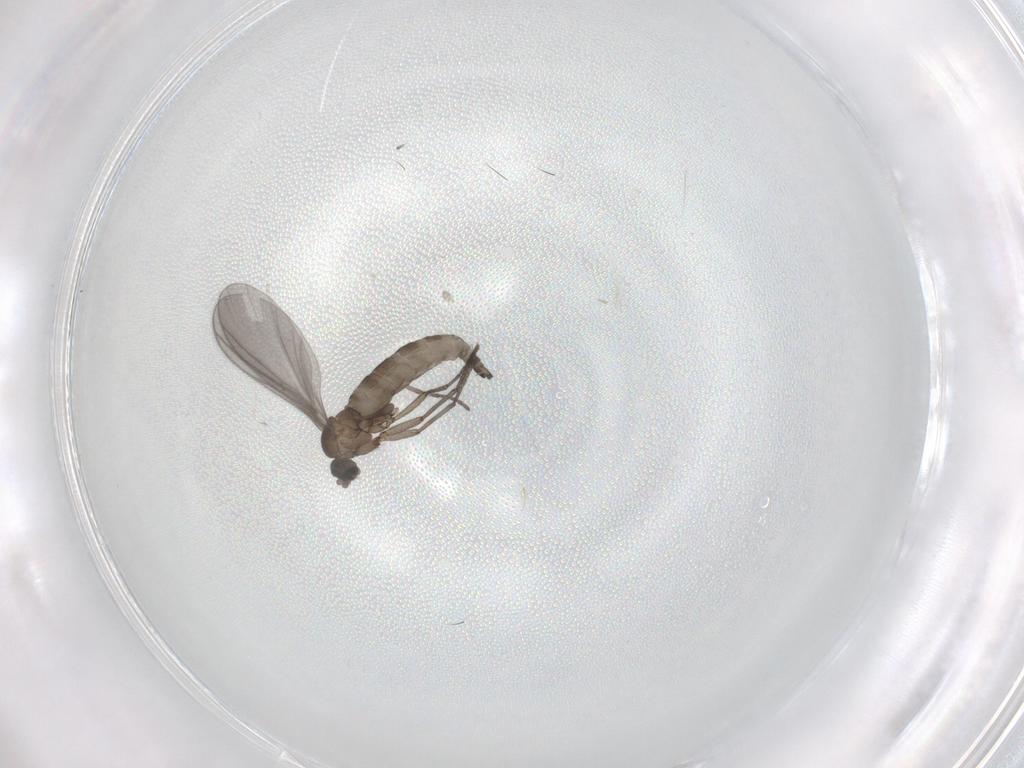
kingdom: Animalia
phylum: Arthropoda
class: Insecta
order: Diptera
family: Sciaridae
